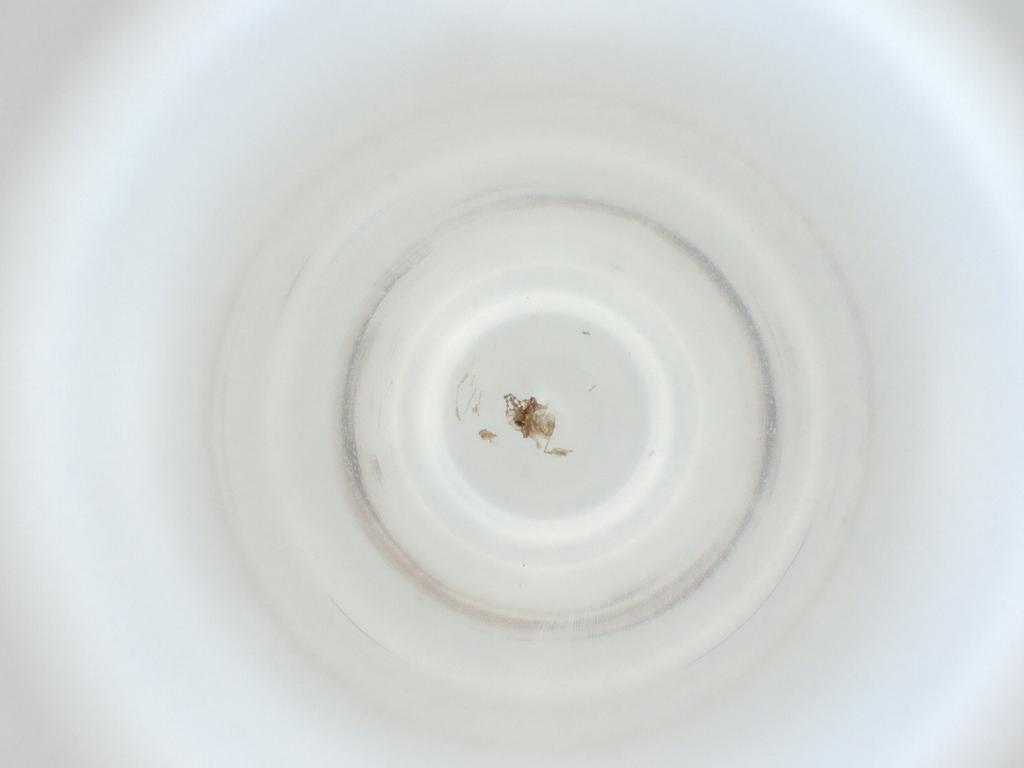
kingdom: Animalia
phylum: Arthropoda
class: Insecta
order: Diptera
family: Cecidomyiidae
